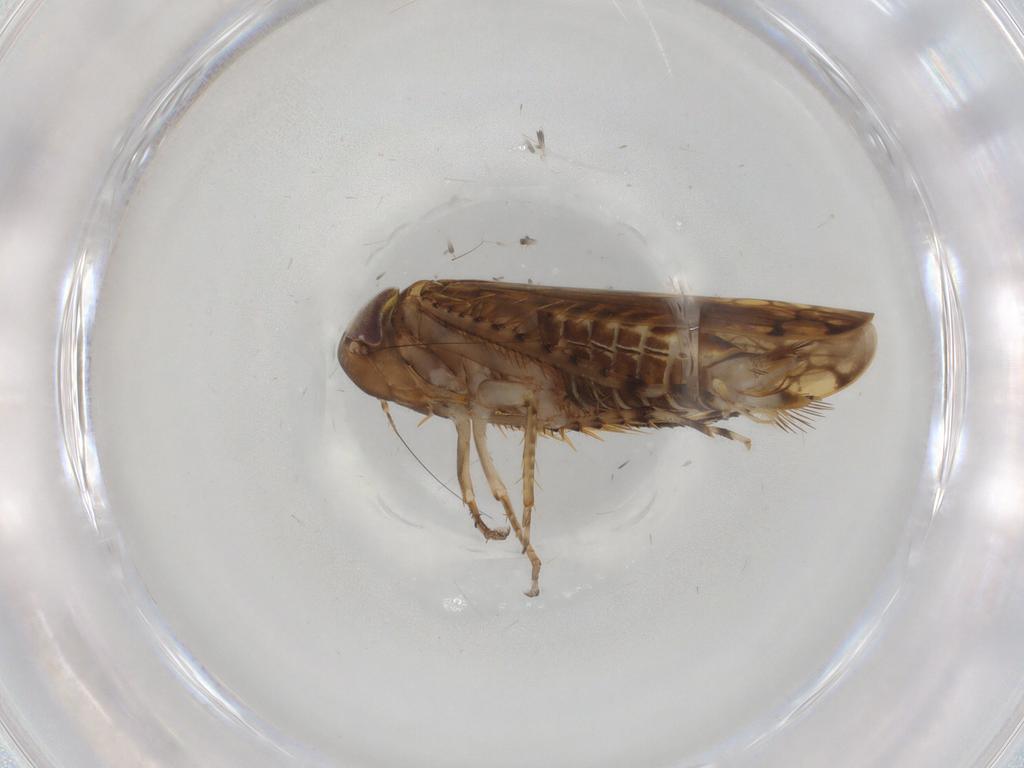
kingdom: Animalia
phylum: Arthropoda
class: Insecta
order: Hemiptera
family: Cicadellidae
